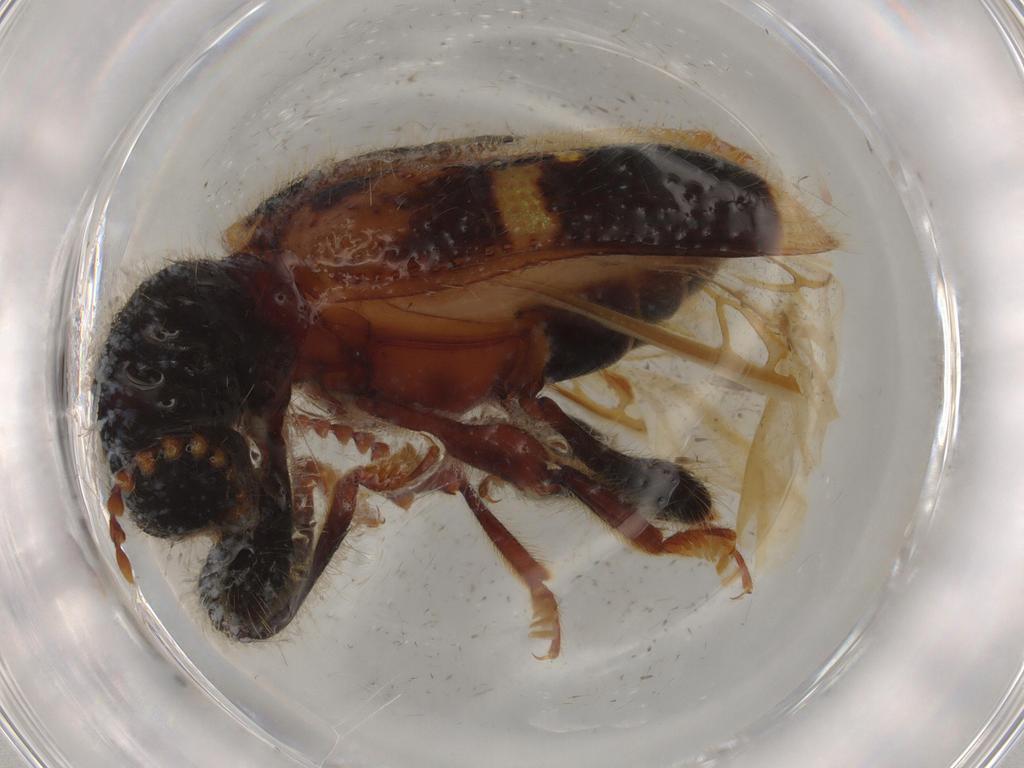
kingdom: Animalia
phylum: Arthropoda
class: Insecta
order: Coleoptera
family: Cleridae
